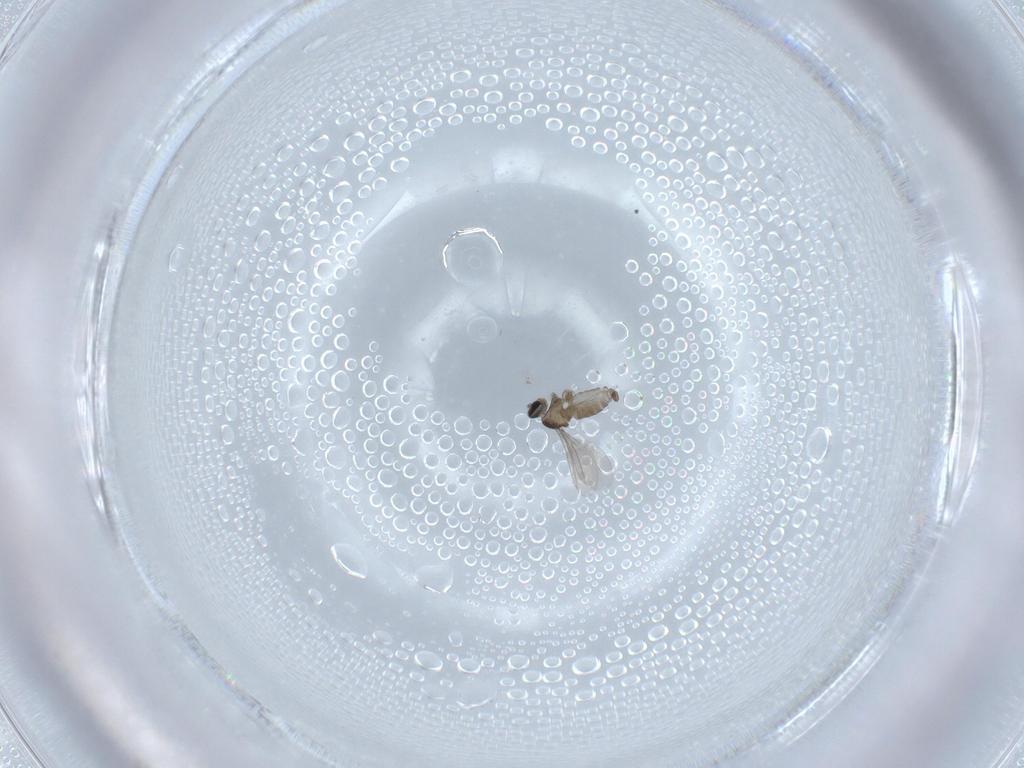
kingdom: Animalia
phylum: Arthropoda
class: Insecta
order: Diptera
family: Cecidomyiidae
